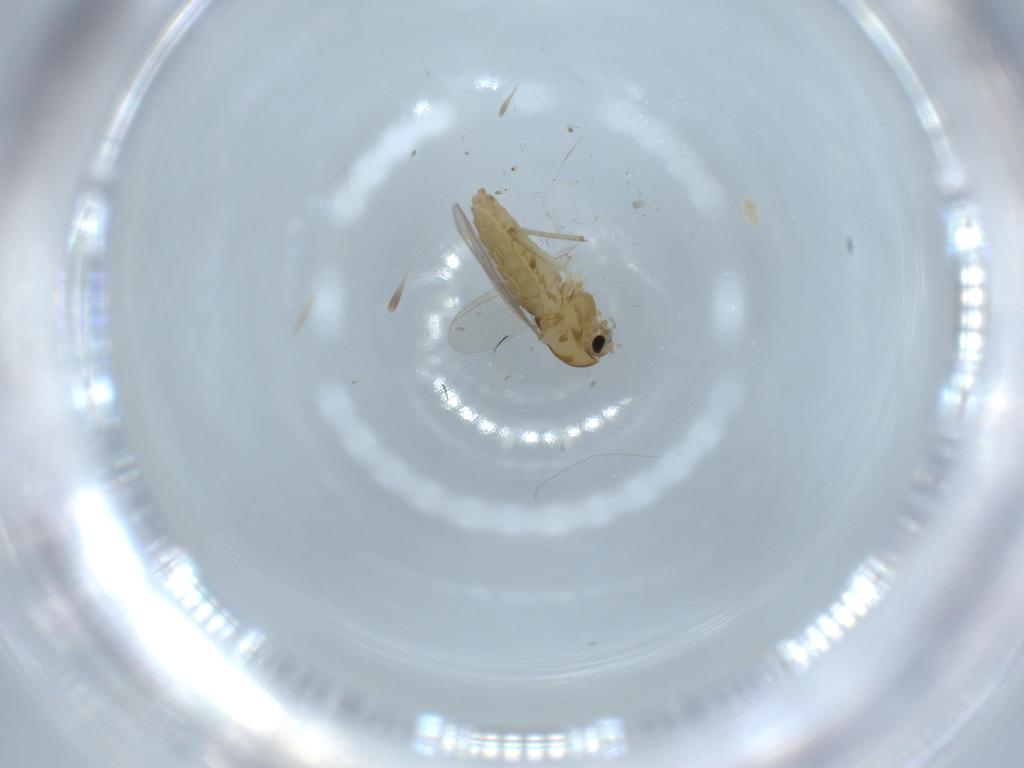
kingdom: Animalia
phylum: Arthropoda
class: Insecta
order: Diptera
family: Chironomidae
